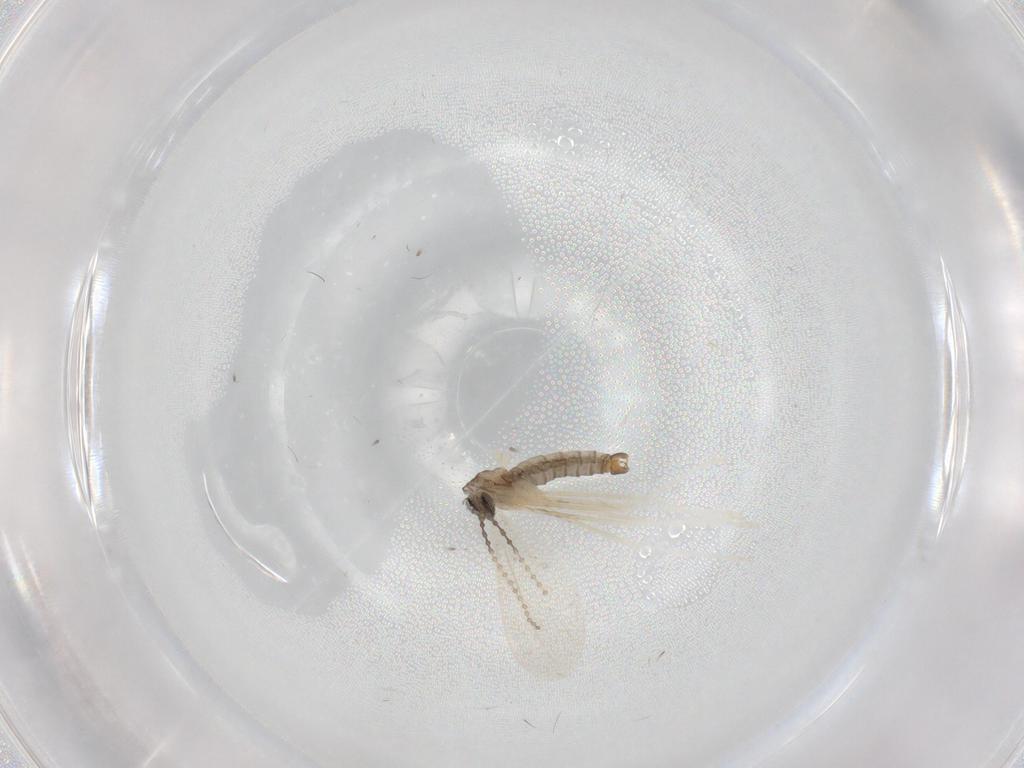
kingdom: Animalia
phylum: Arthropoda
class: Insecta
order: Diptera
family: Cecidomyiidae
